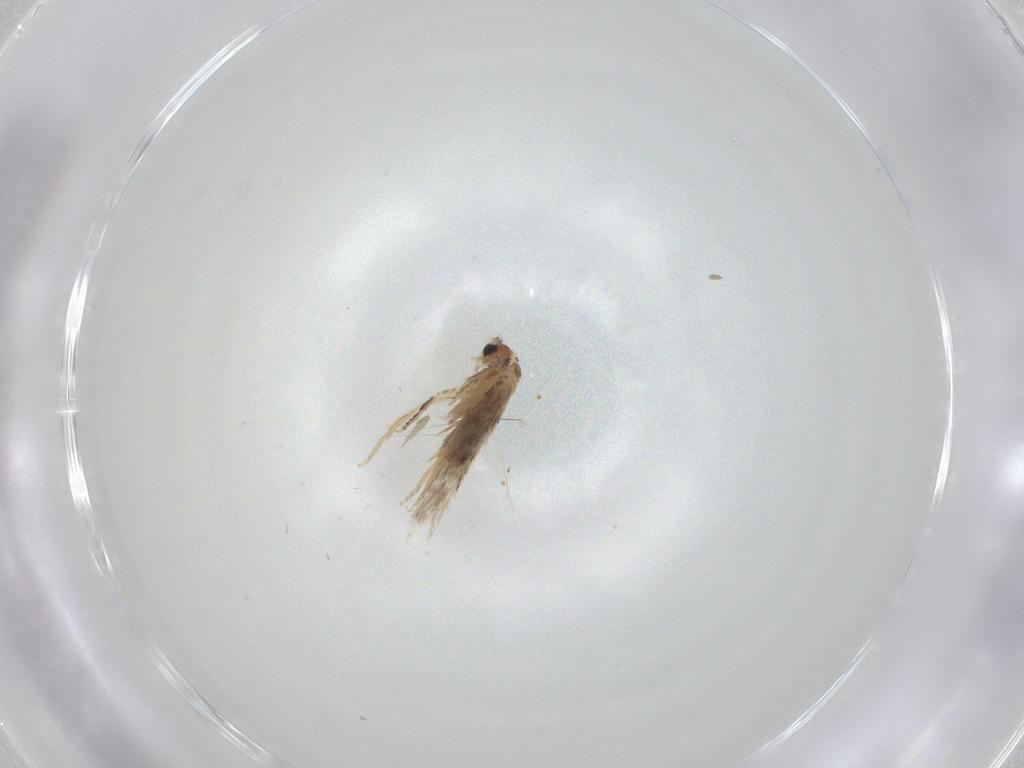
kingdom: Animalia
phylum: Arthropoda
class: Insecta
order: Lepidoptera
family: Nepticulidae
